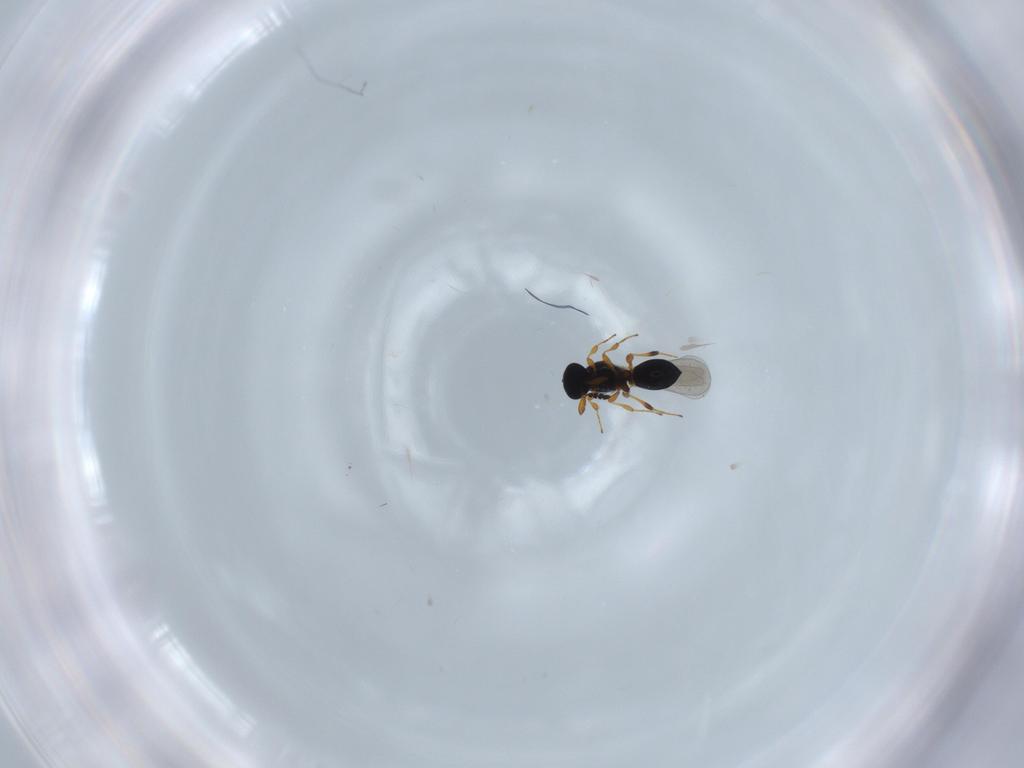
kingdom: Animalia
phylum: Arthropoda
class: Insecta
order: Hymenoptera
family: Platygastridae
